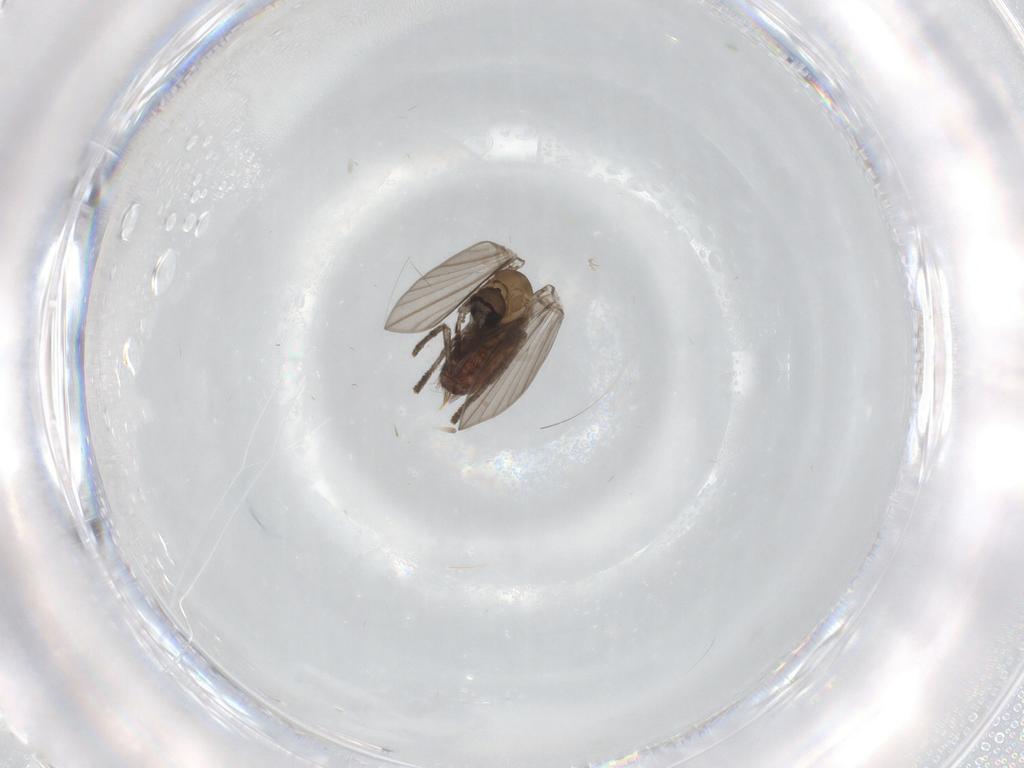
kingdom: Animalia
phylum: Arthropoda
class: Insecta
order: Diptera
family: Psychodidae
